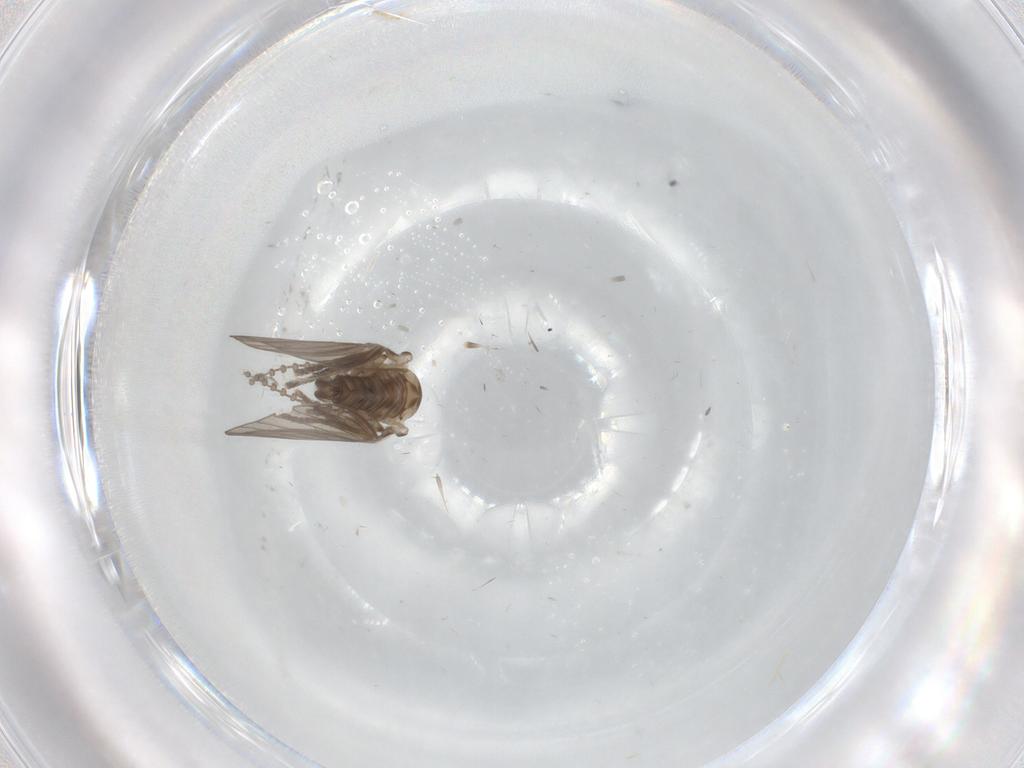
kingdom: Animalia
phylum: Arthropoda
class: Insecta
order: Diptera
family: Psychodidae
